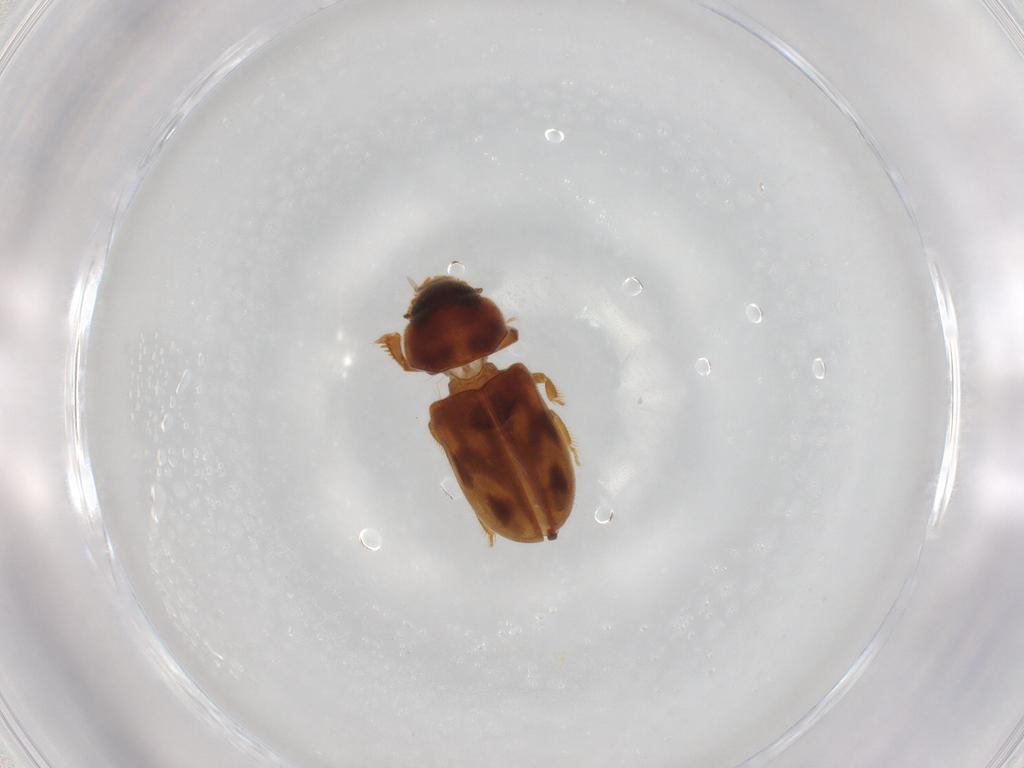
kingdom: Animalia
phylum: Arthropoda
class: Insecta
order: Coleoptera
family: Heteroceridae
